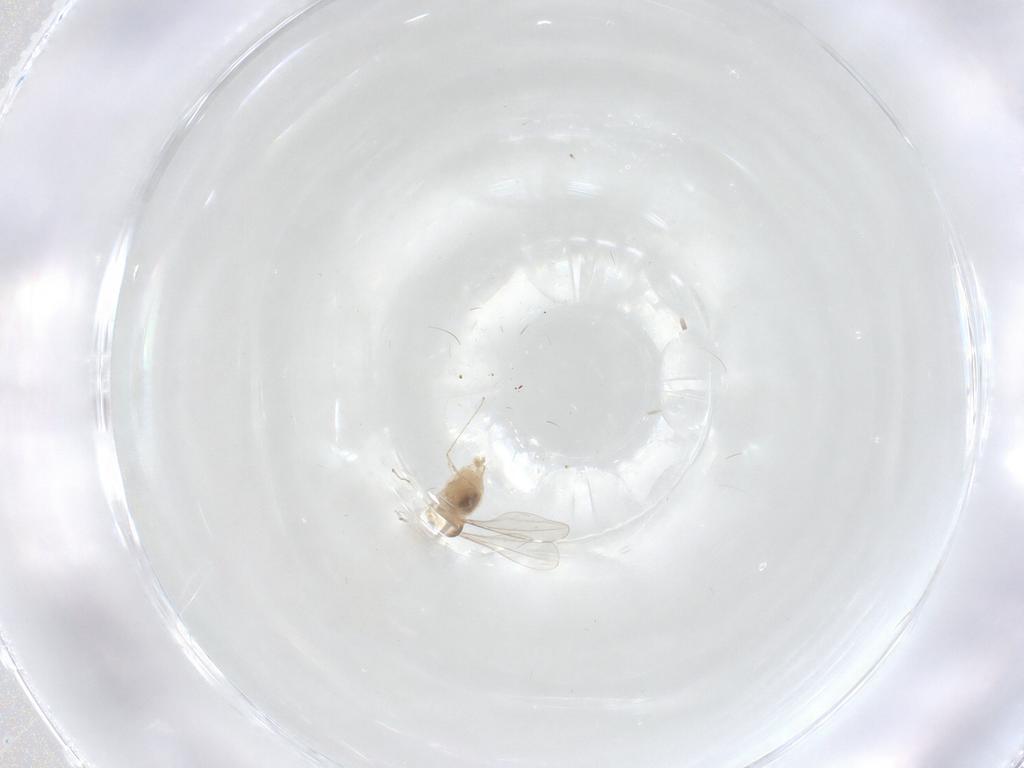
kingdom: Animalia
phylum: Arthropoda
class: Insecta
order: Diptera
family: Cecidomyiidae
